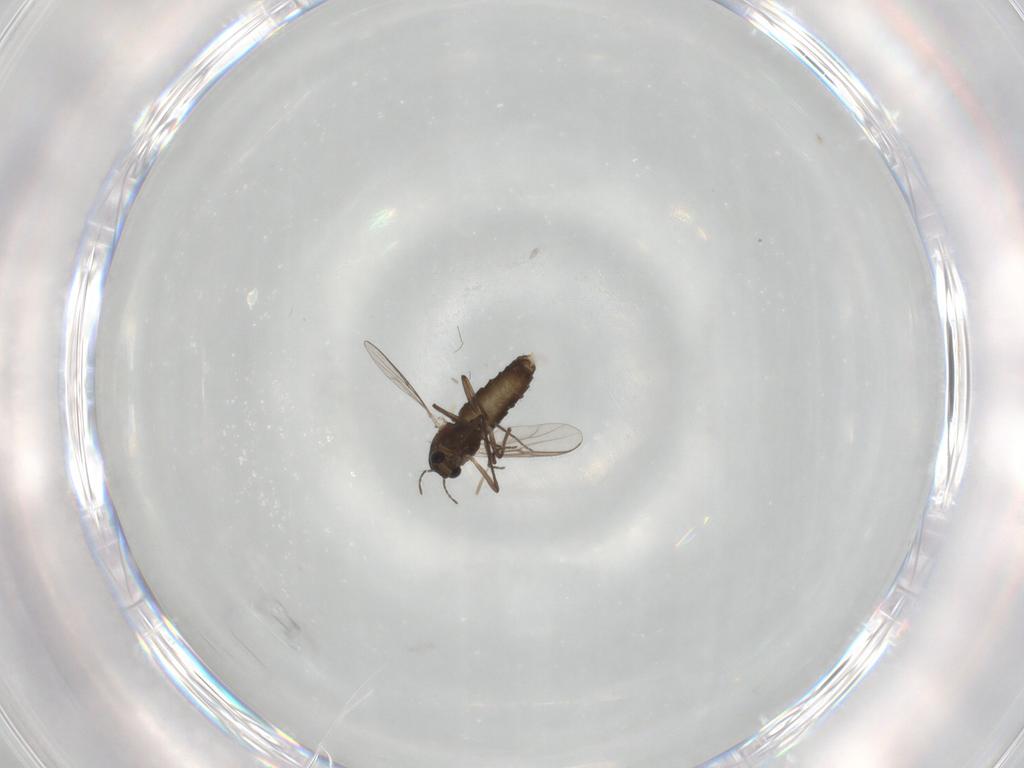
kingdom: Animalia
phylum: Arthropoda
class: Insecta
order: Diptera
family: Chironomidae
